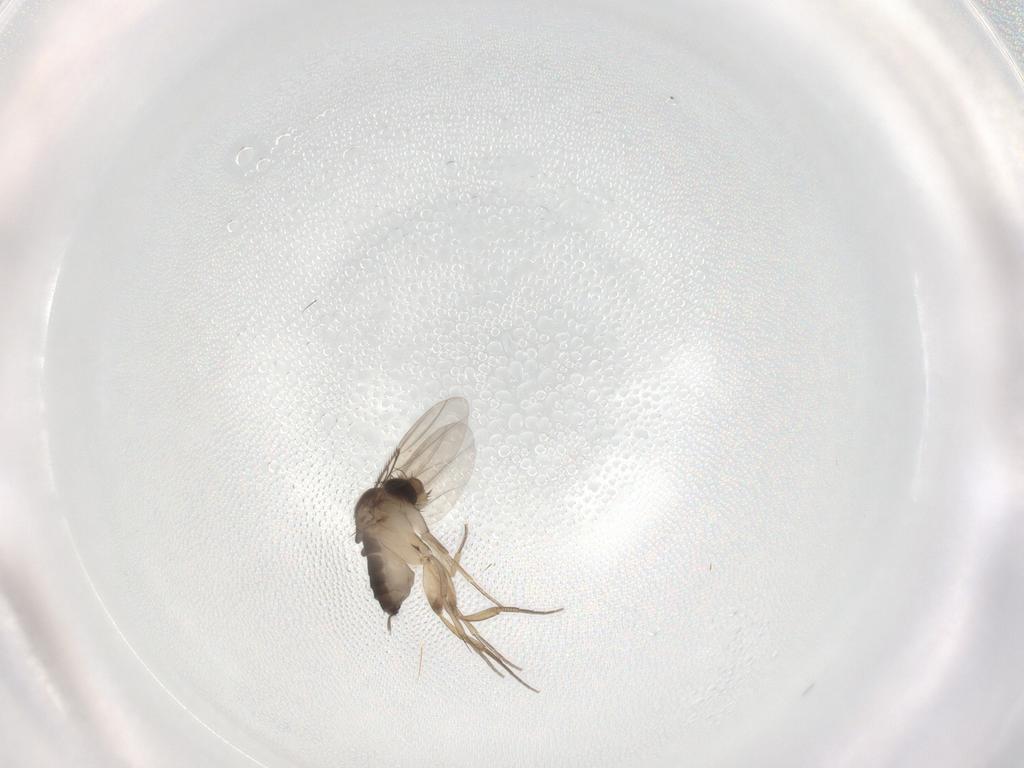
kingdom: Animalia
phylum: Arthropoda
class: Insecta
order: Diptera
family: Phoridae
